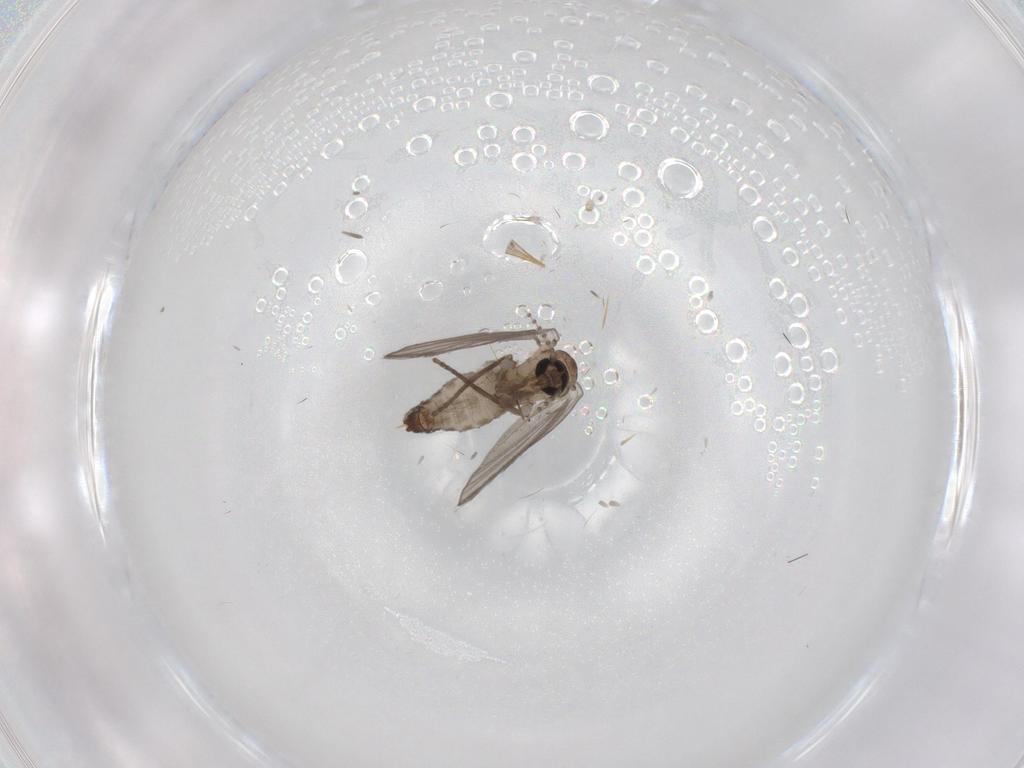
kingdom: Animalia
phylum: Arthropoda
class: Insecta
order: Diptera
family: Psychodidae
